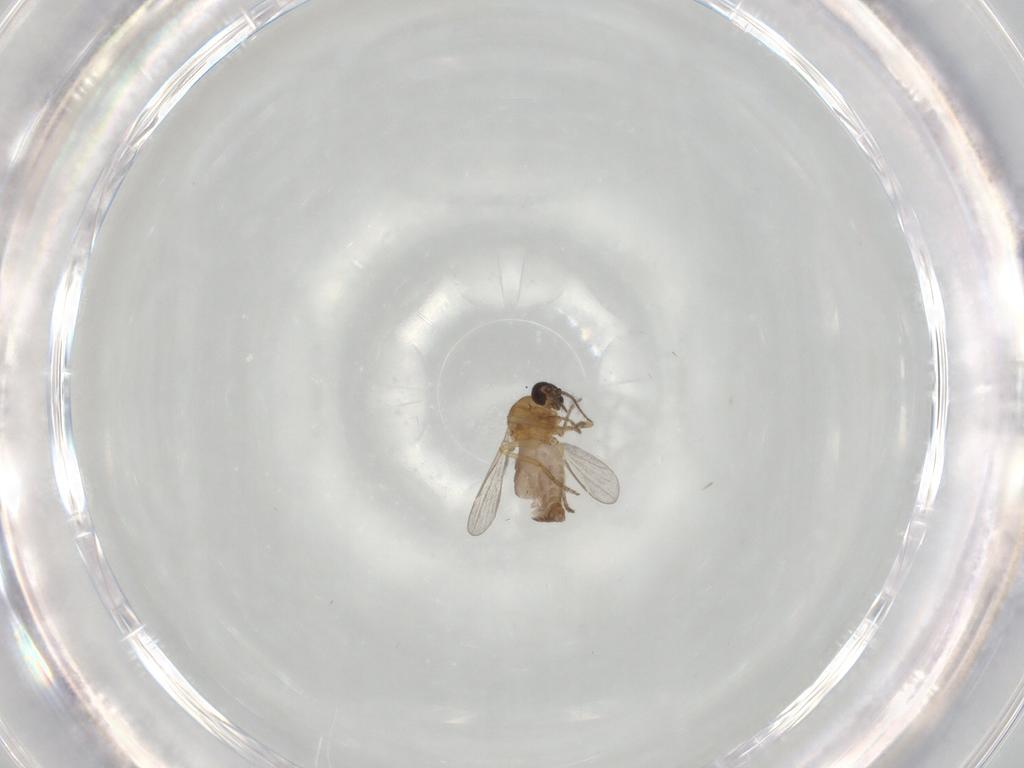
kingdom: Animalia
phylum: Arthropoda
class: Insecta
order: Diptera
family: Ceratopogonidae
